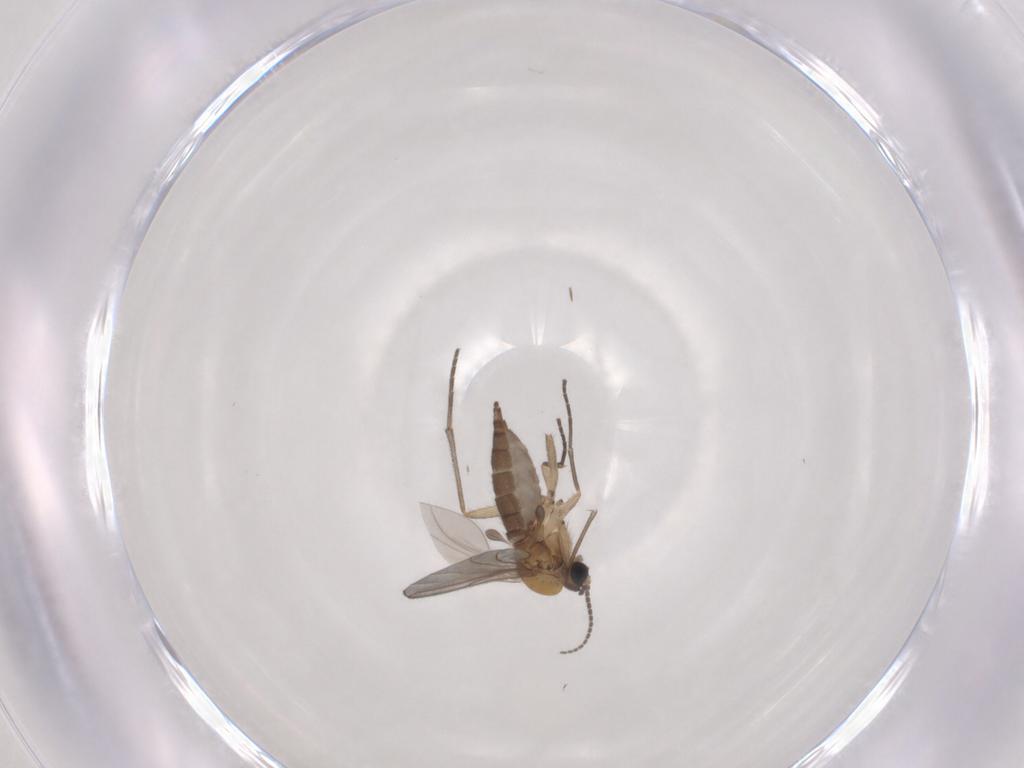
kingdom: Animalia
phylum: Arthropoda
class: Insecta
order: Diptera
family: Sciaridae
